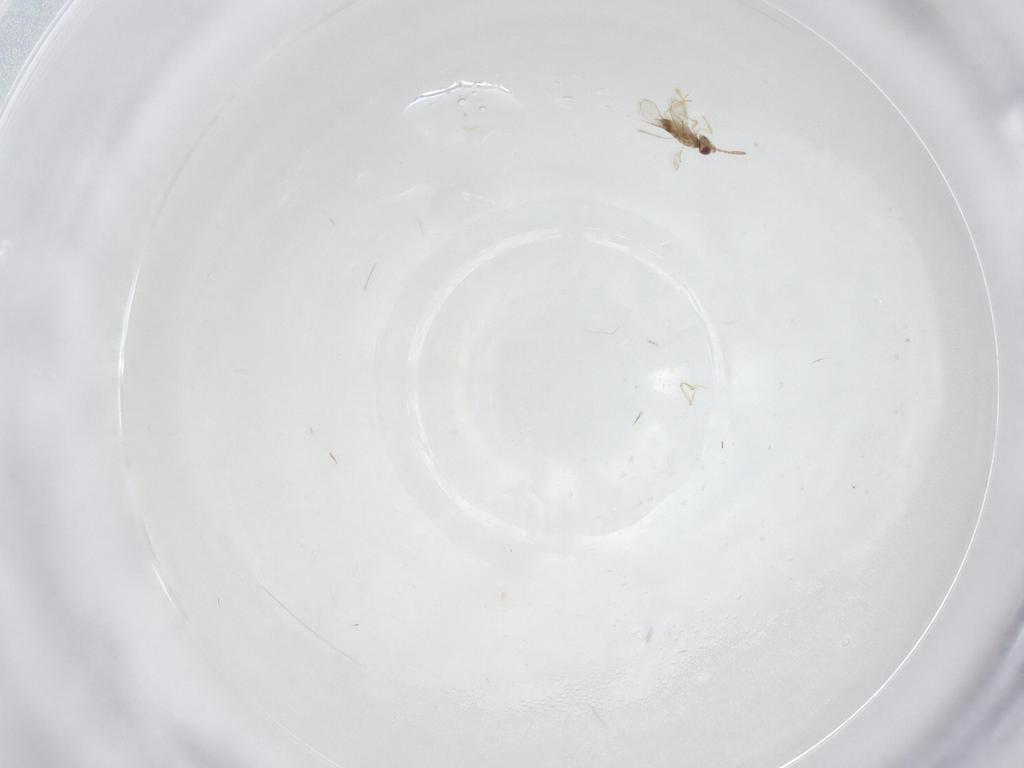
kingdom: Animalia
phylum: Arthropoda
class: Insecta
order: Hymenoptera
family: Aphelinidae
